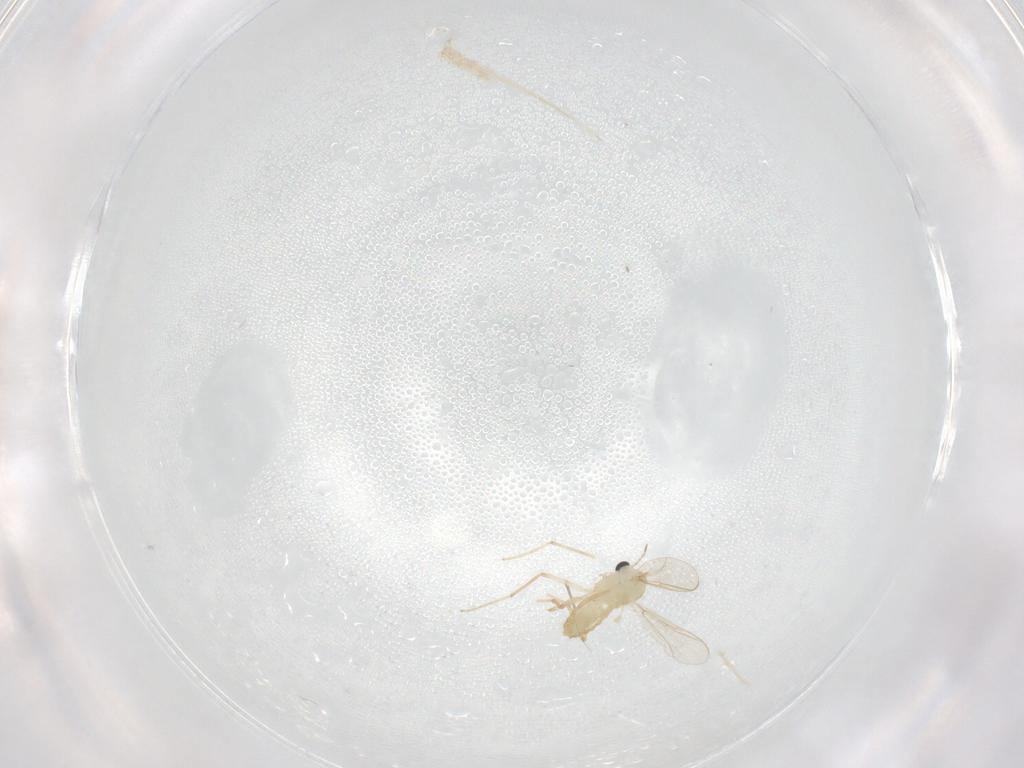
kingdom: Animalia
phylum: Arthropoda
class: Insecta
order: Diptera
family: Chironomidae
